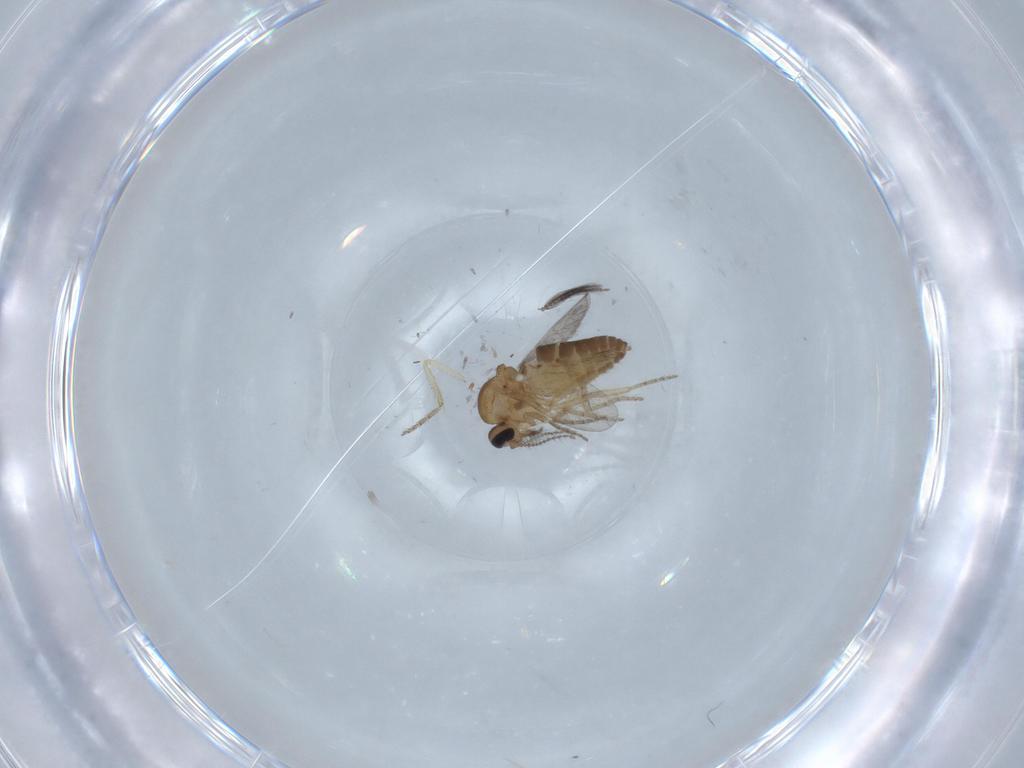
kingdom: Animalia
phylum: Arthropoda
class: Insecta
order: Diptera
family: Ceratopogonidae
